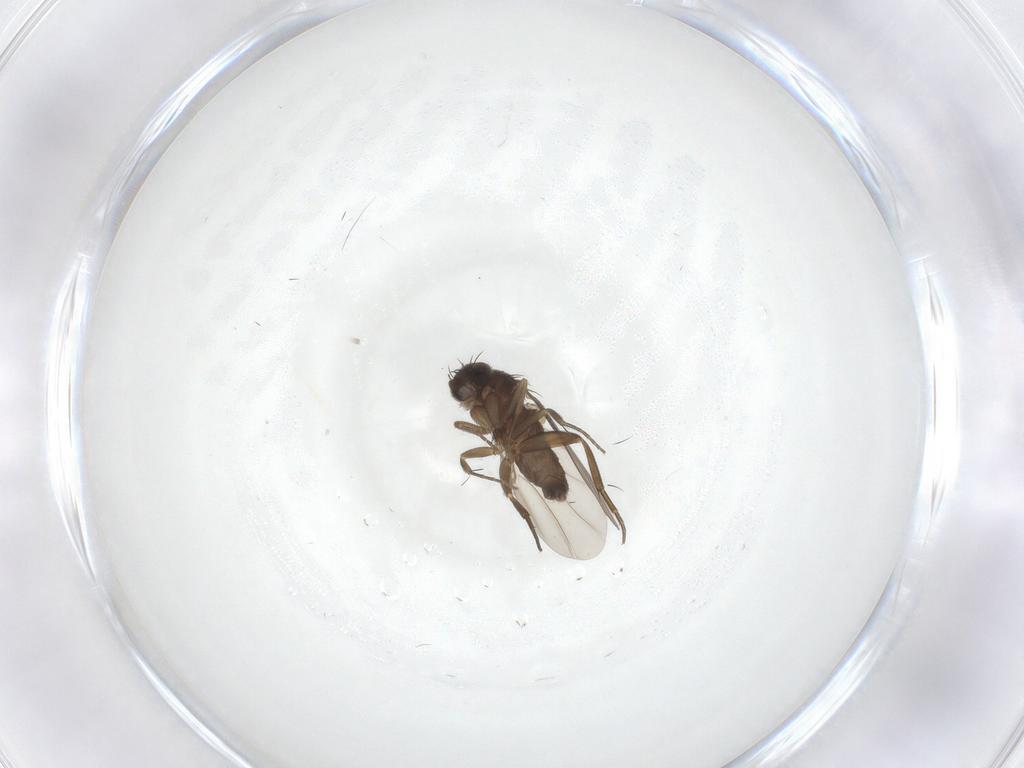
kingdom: Animalia
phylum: Arthropoda
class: Insecta
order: Diptera
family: Phoridae
